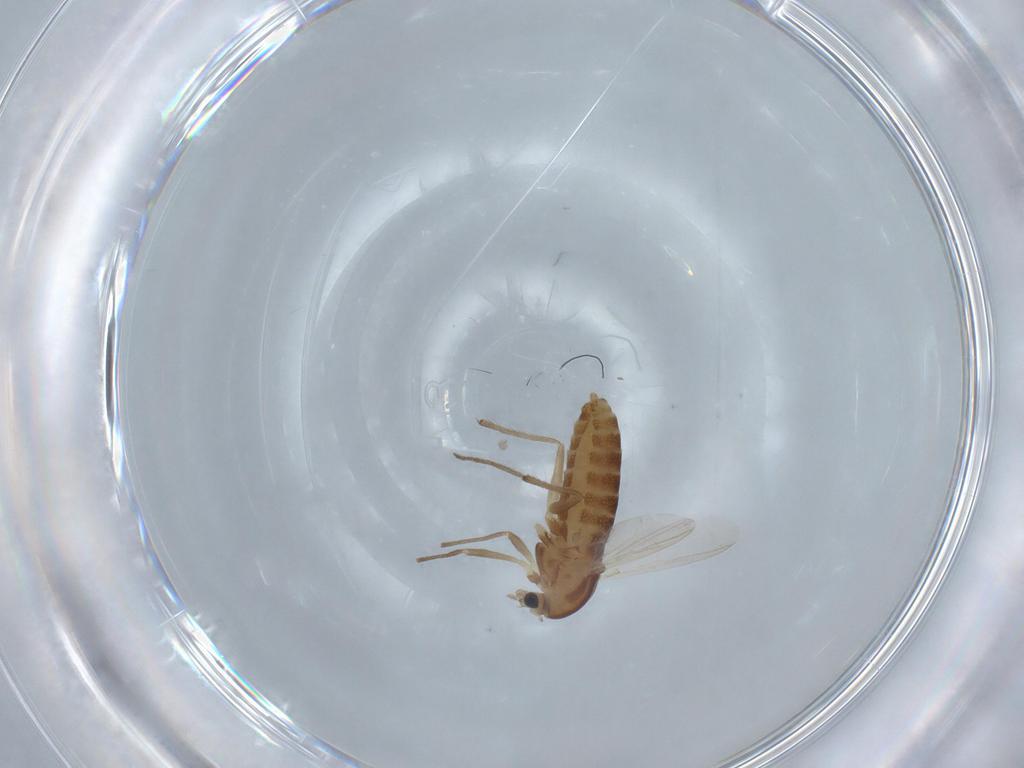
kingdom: Animalia
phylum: Arthropoda
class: Insecta
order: Diptera
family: Chironomidae
